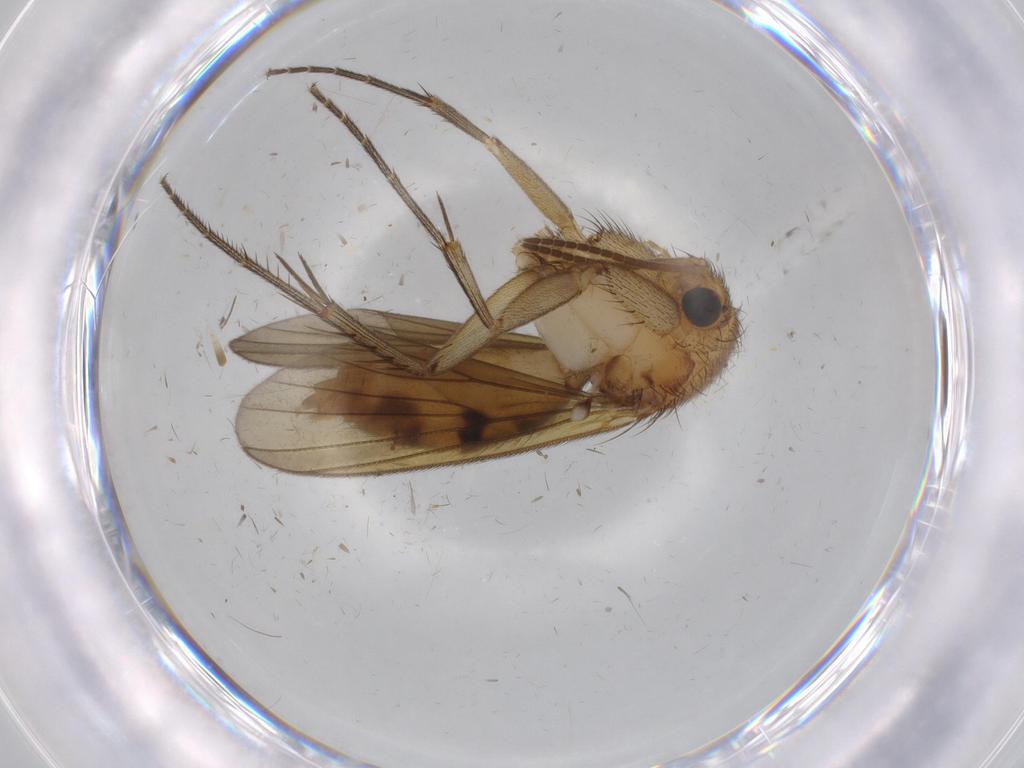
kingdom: Animalia
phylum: Arthropoda
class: Insecta
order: Diptera
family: Mycetophilidae
